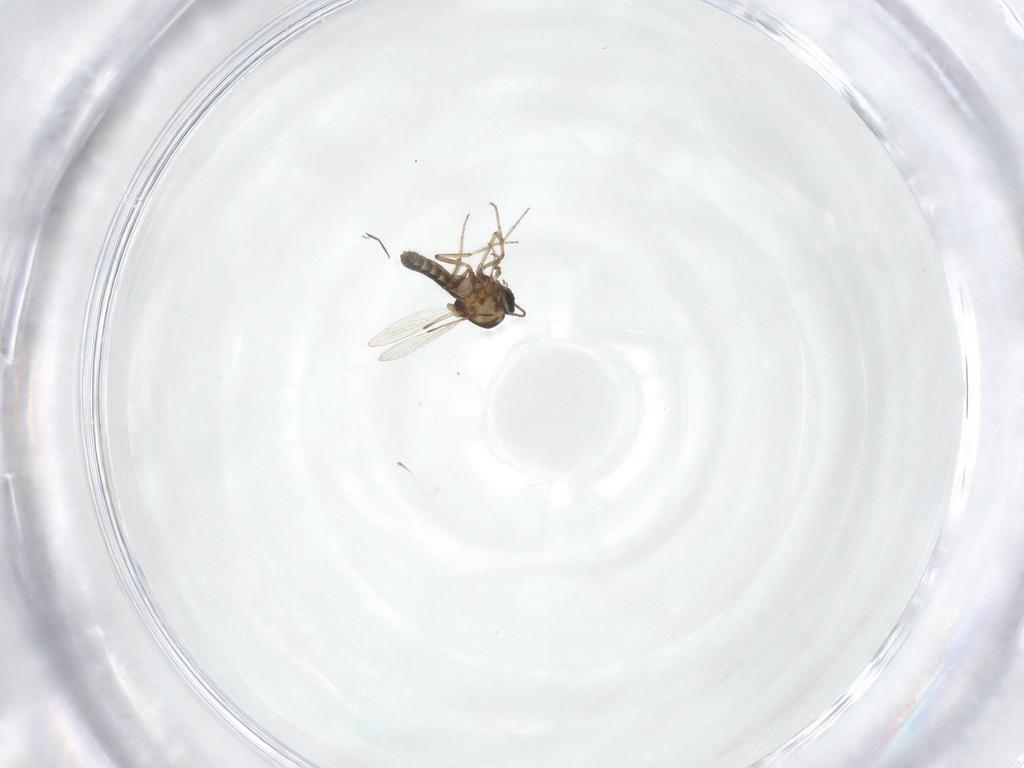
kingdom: Animalia
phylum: Arthropoda
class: Insecta
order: Diptera
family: Ceratopogonidae
